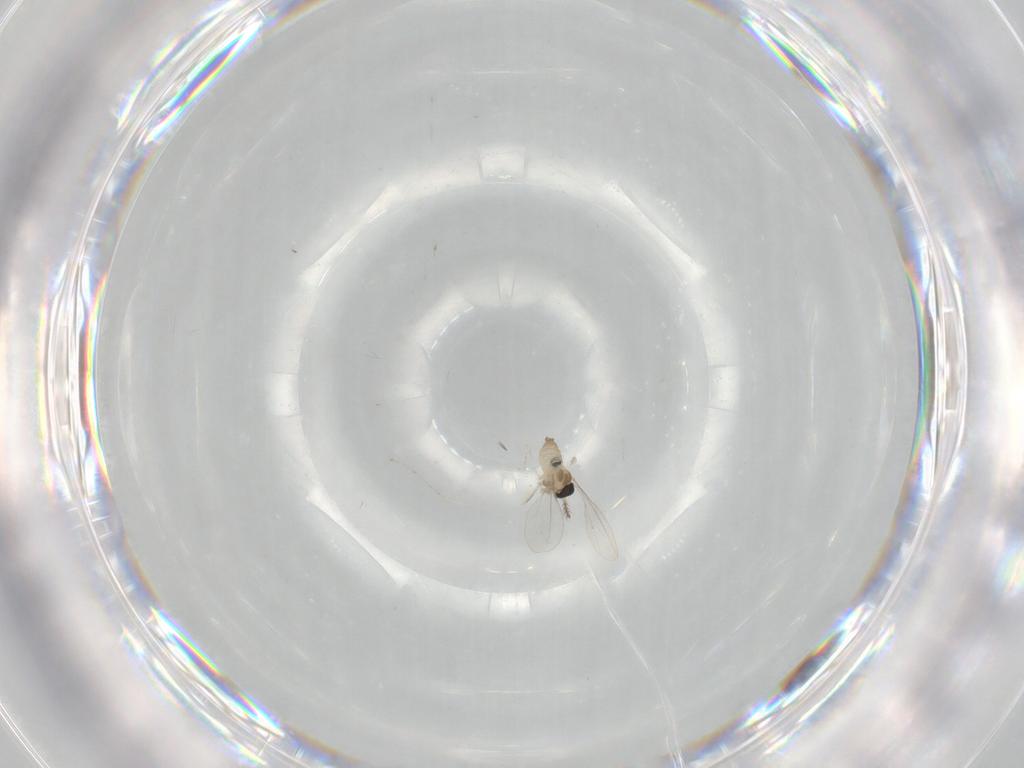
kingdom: Animalia
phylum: Arthropoda
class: Insecta
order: Diptera
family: Cecidomyiidae
